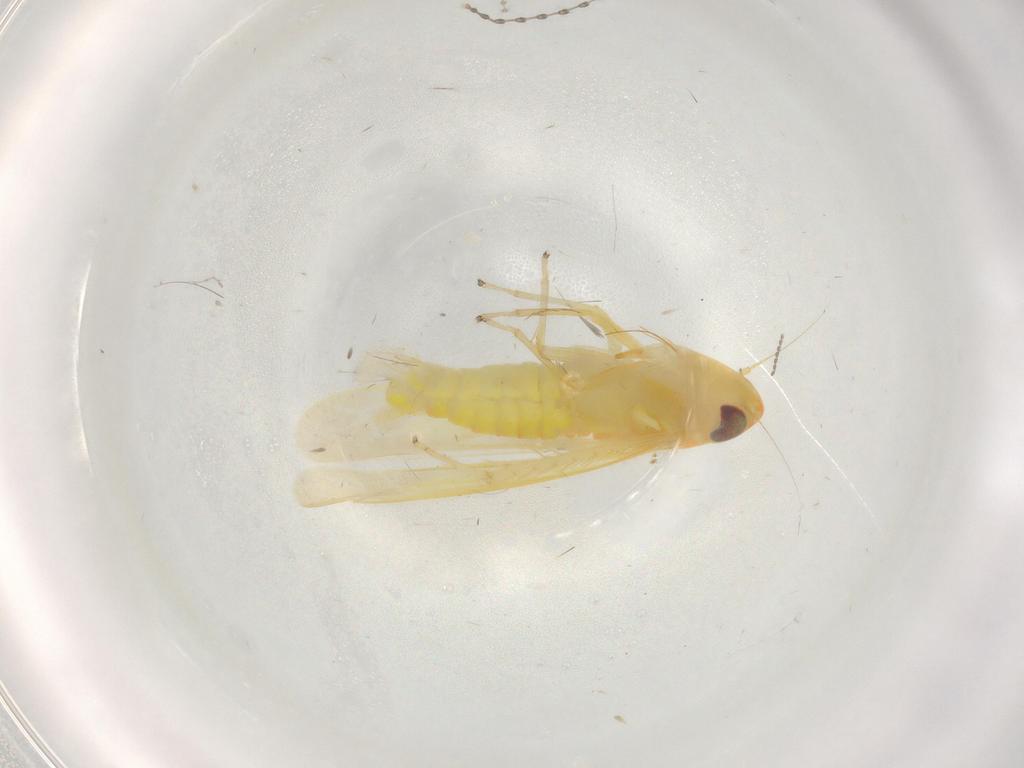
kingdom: Animalia
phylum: Arthropoda
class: Insecta
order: Hemiptera
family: Cicadellidae
